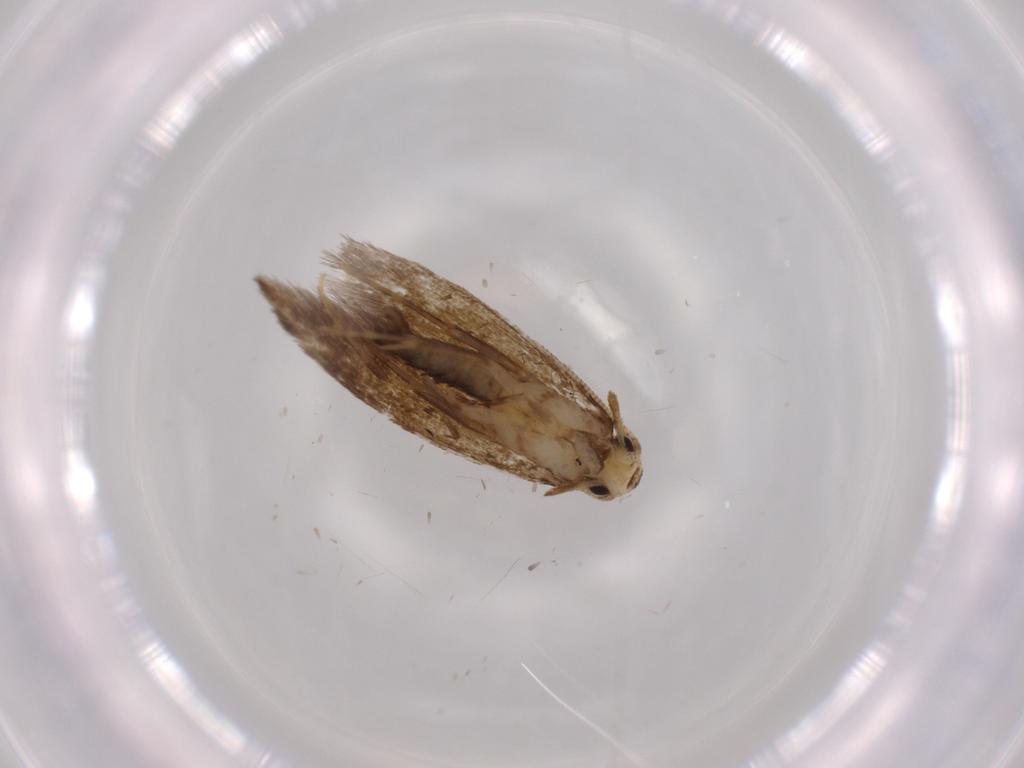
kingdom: Animalia
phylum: Arthropoda
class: Insecta
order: Lepidoptera
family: Tineidae
